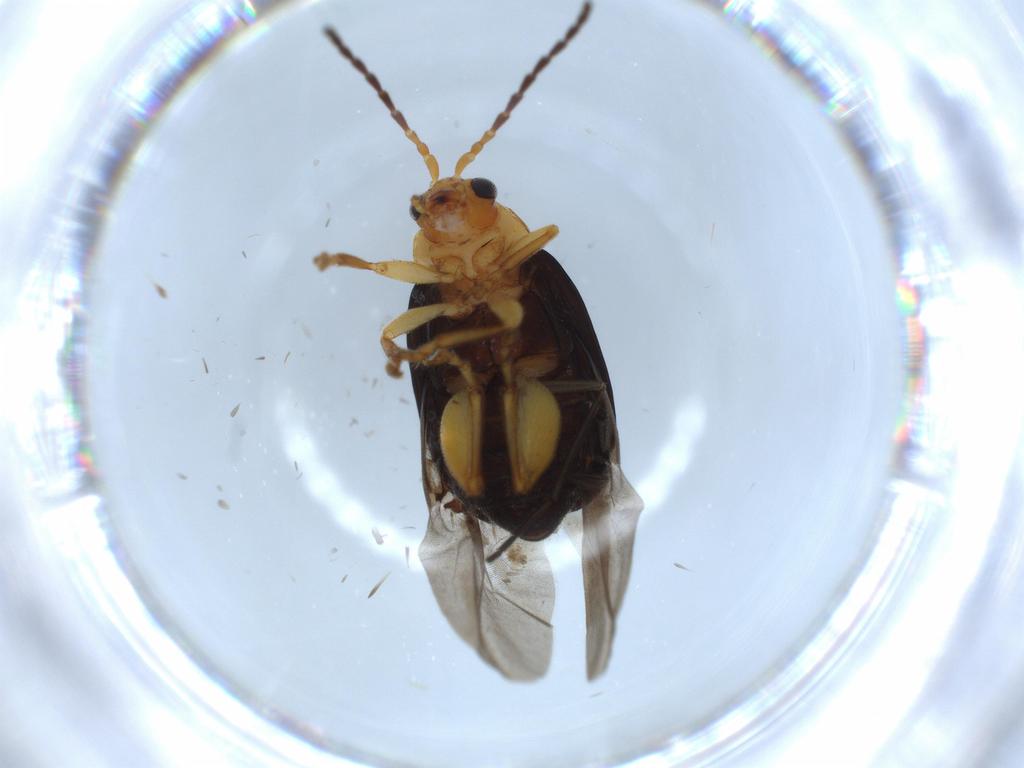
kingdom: Animalia
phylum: Arthropoda
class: Insecta
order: Coleoptera
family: Chrysomelidae
